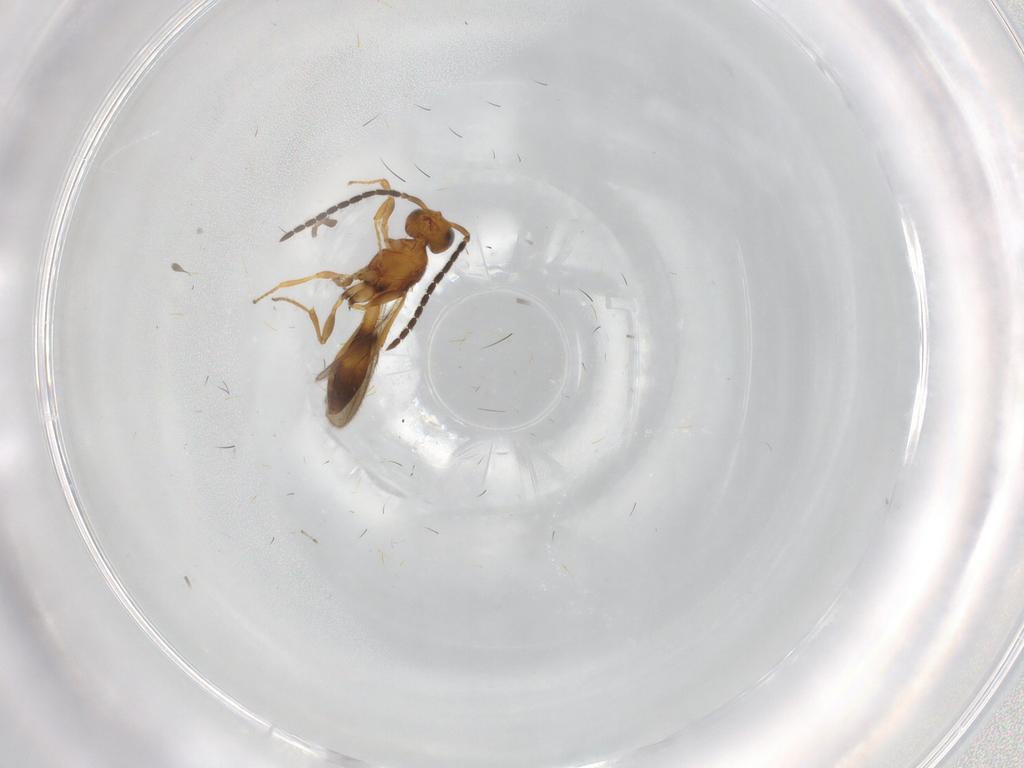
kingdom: Animalia
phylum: Arthropoda
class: Insecta
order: Hymenoptera
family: Scelionidae
